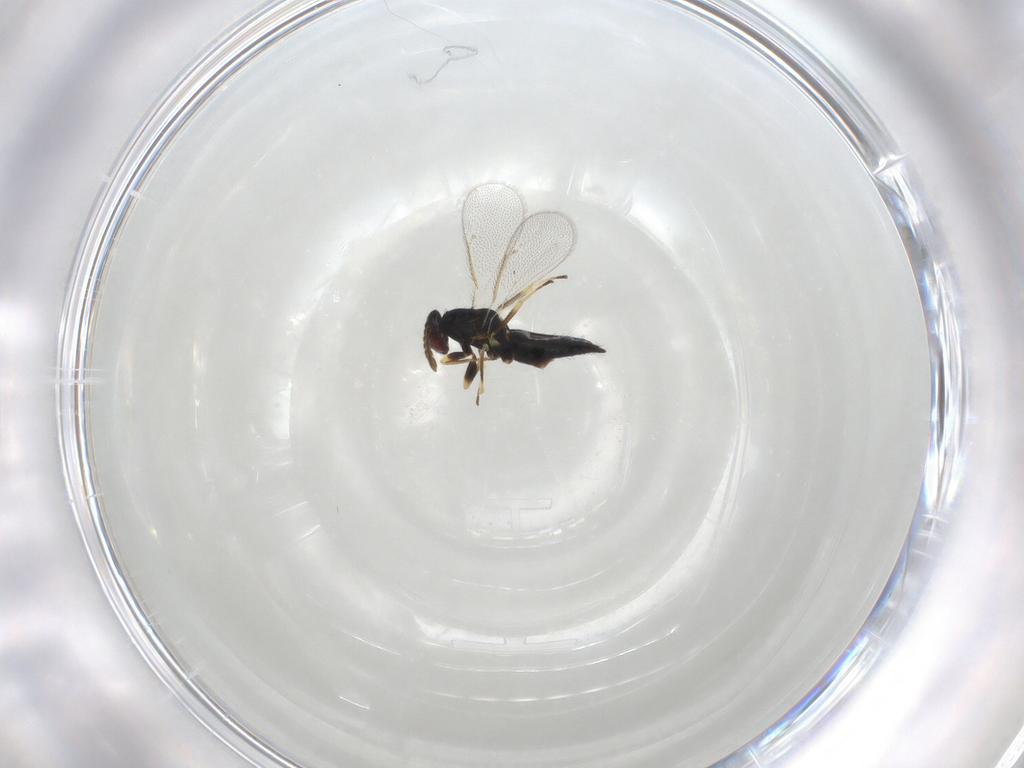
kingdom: Animalia
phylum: Arthropoda
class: Insecta
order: Hymenoptera
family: Eulophidae
